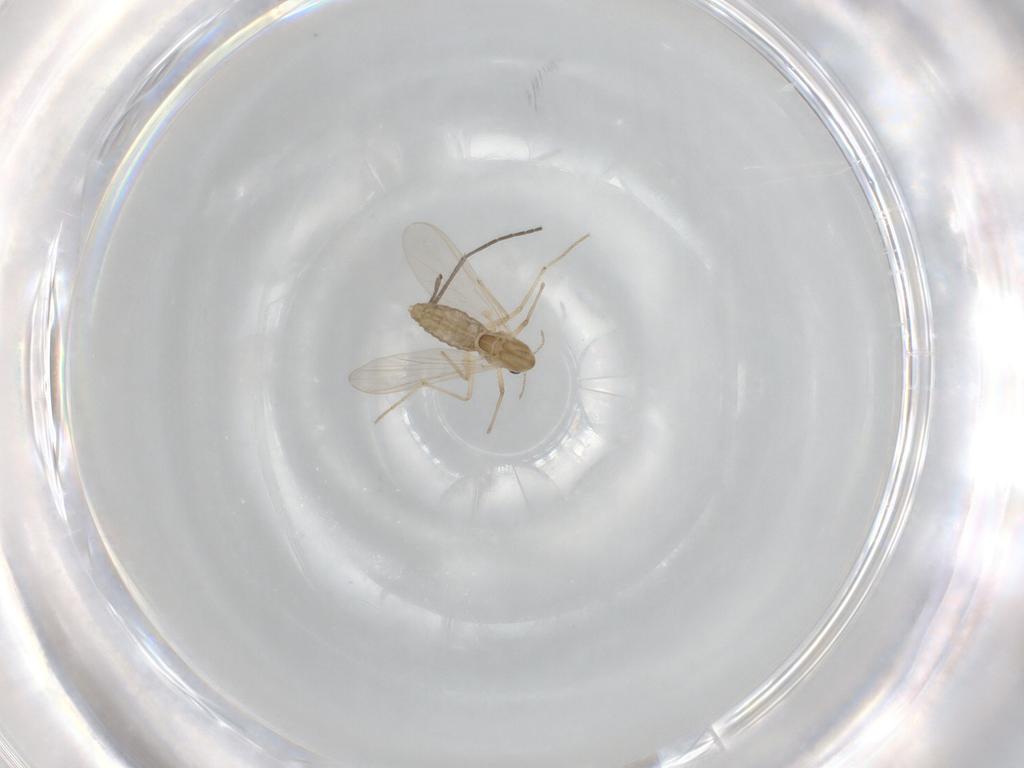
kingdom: Animalia
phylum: Arthropoda
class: Insecta
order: Diptera
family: Chironomidae
